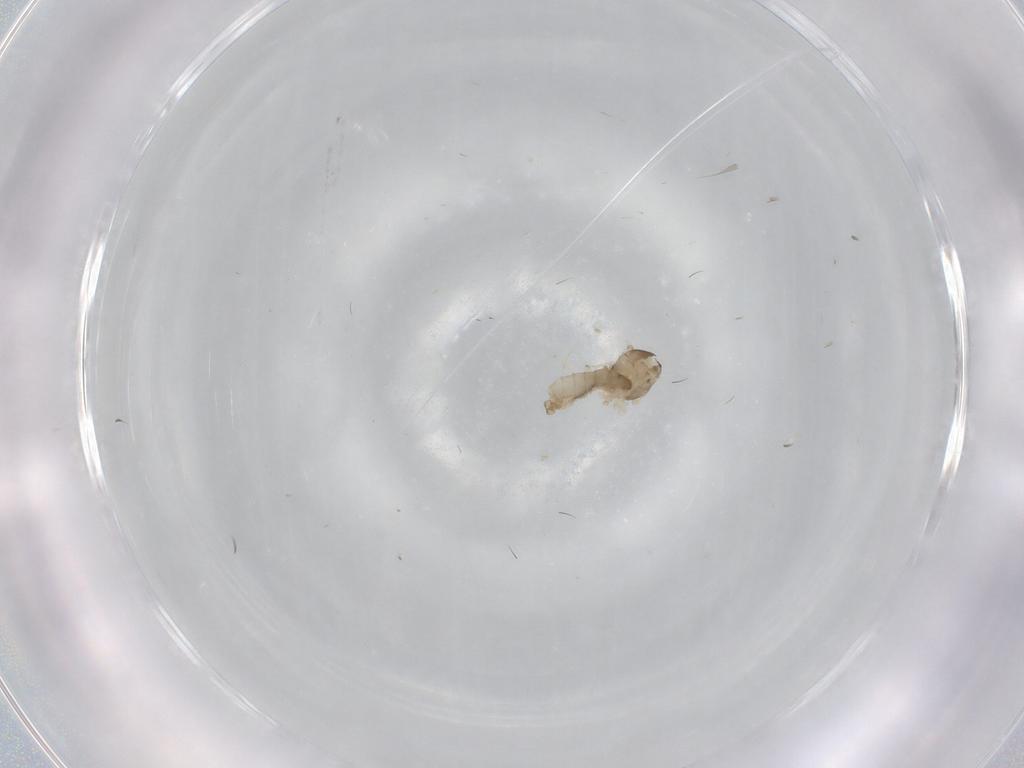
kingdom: Animalia
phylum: Arthropoda
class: Insecta
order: Diptera
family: Cecidomyiidae
